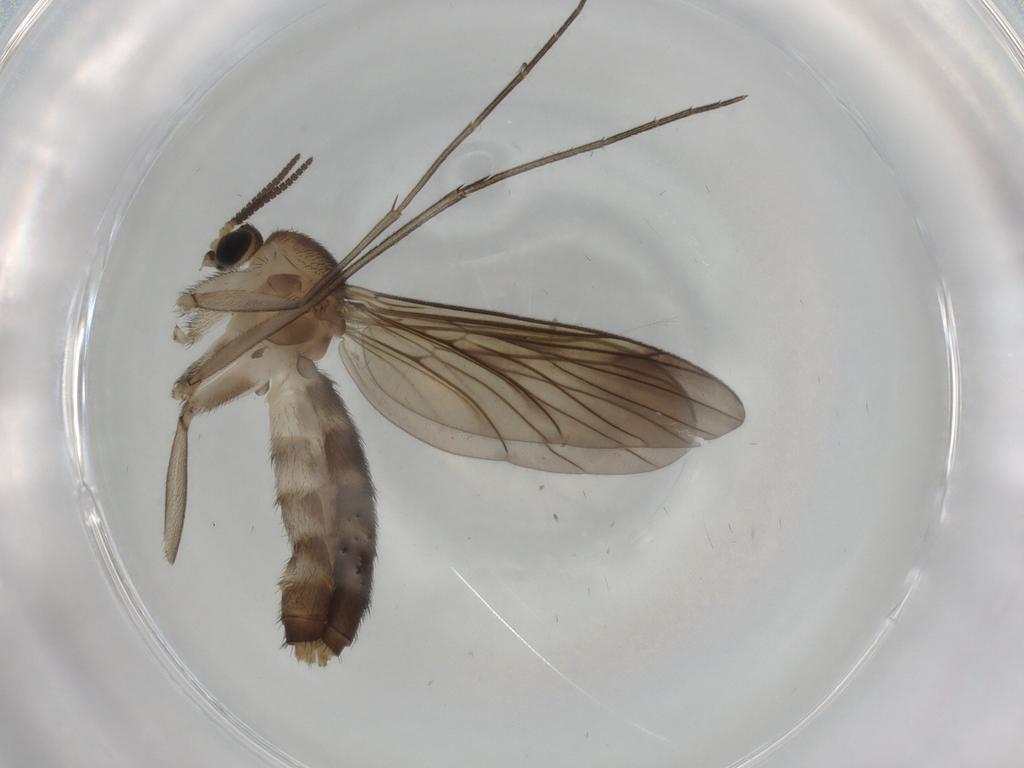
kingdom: Animalia
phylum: Arthropoda
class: Insecta
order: Diptera
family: Mycetophilidae
